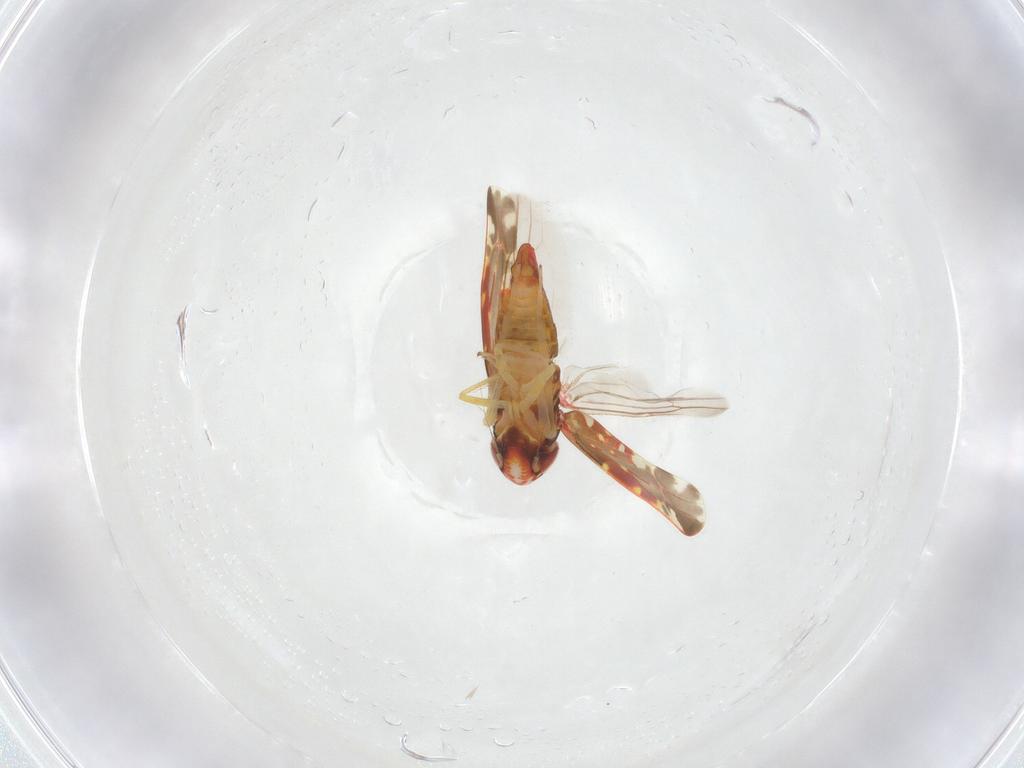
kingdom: Animalia
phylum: Arthropoda
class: Insecta
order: Hemiptera
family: Cicadellidae
